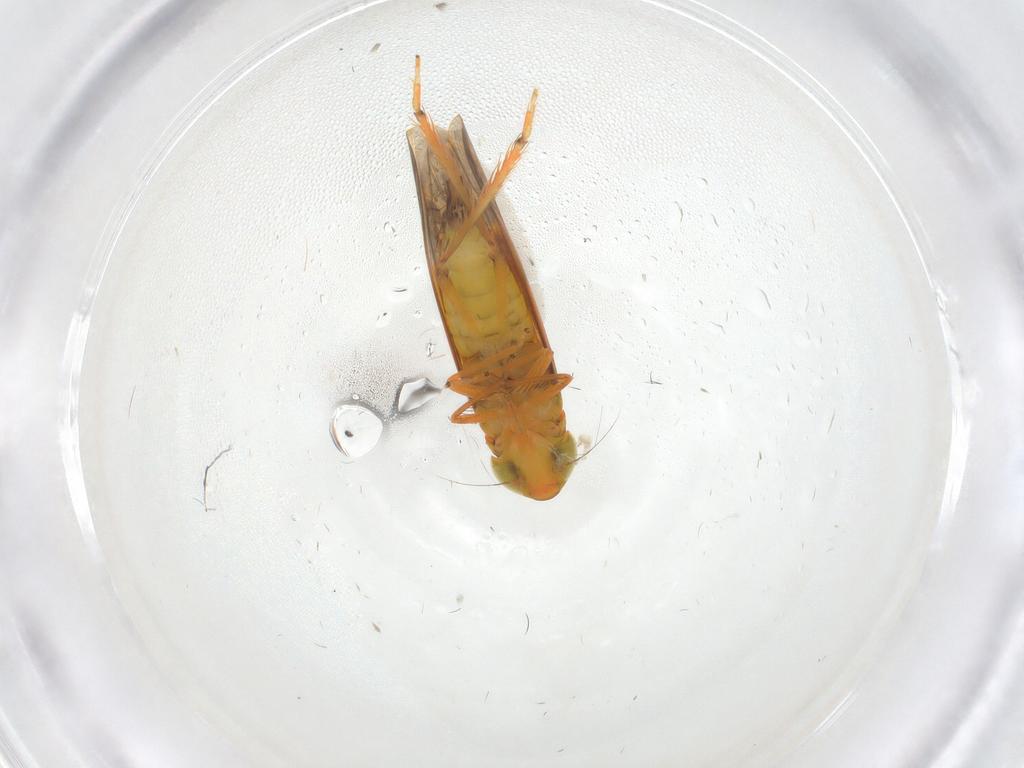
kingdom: Animalia
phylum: Arthropoda
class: Insecta
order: Hemiptera
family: Cicadellidae
